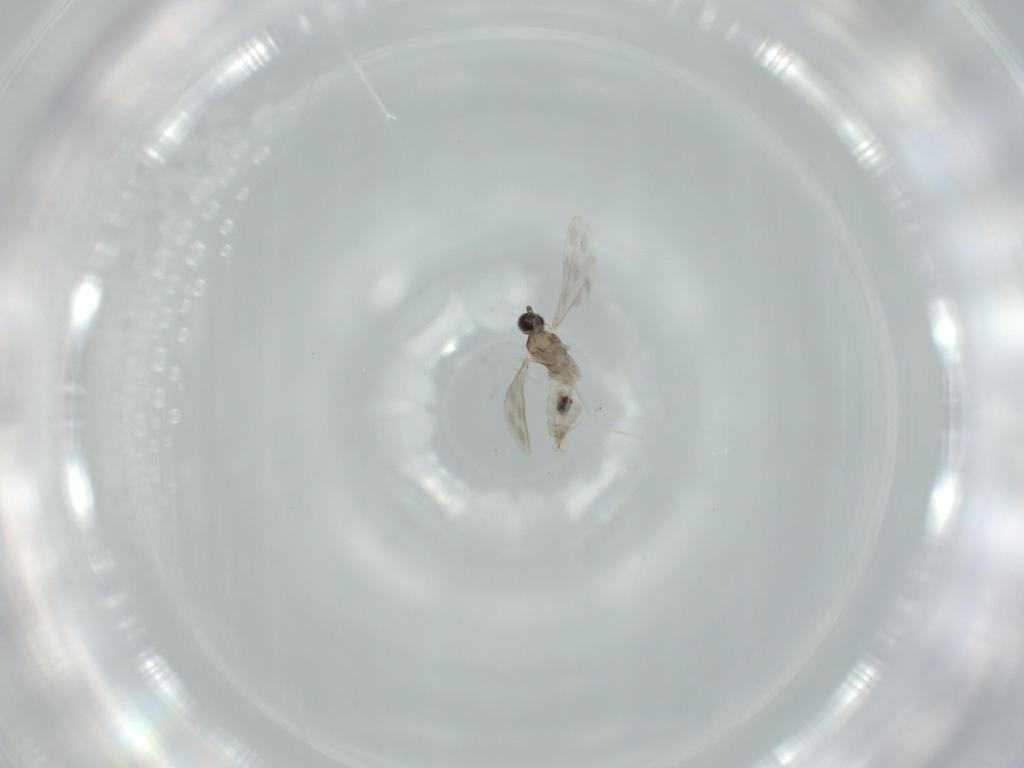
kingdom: Animalia
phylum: Arthropoda
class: Insecta
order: Diptera
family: Cecidomyiidae
